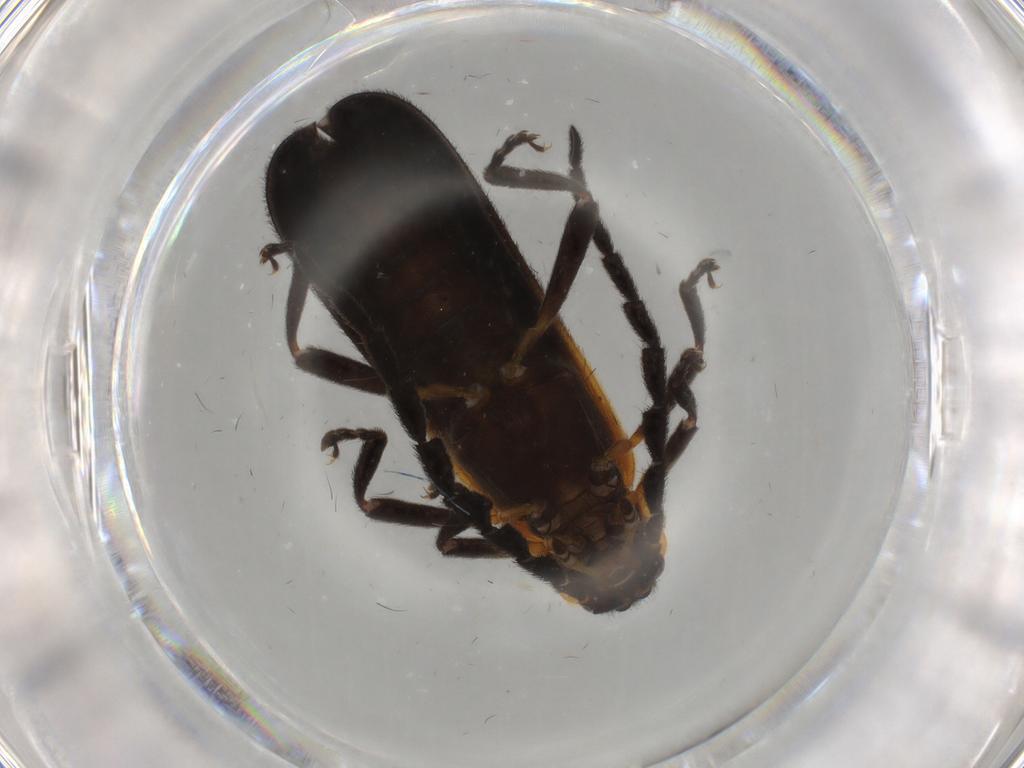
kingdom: Animalia
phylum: Arthropoda
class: Insecta
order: Coleoptera
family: Lycidae
